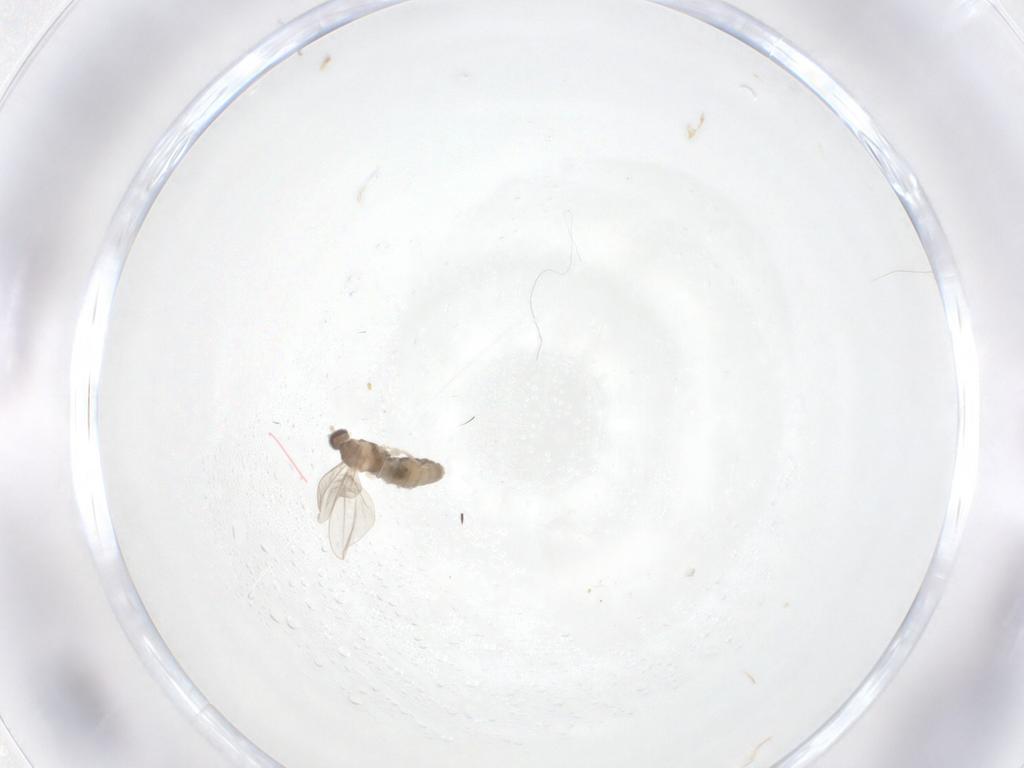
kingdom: Animalia
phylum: Arthropoda
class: Insecta
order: Diptera
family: Cecidomyiidae
